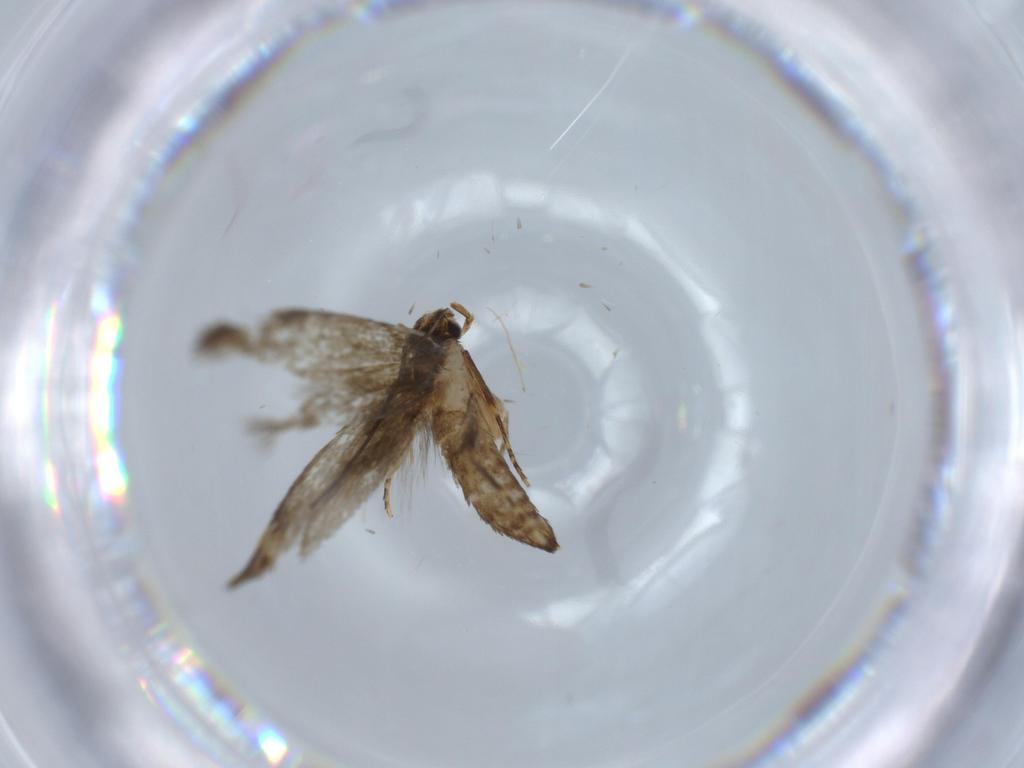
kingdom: Animalia
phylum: Arthropoda
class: Insecta
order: Lepidoptera
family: Tineidae
